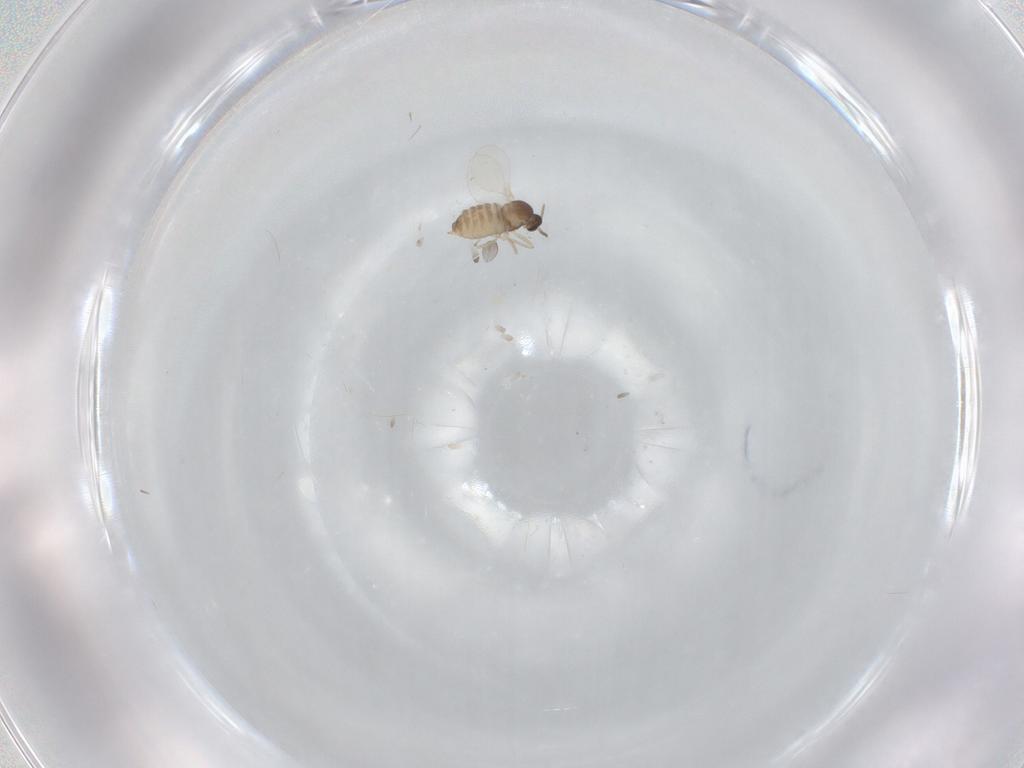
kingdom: Animalia
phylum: Arthropoda
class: Insecta
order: Diptera
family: Cecidomyiidae
